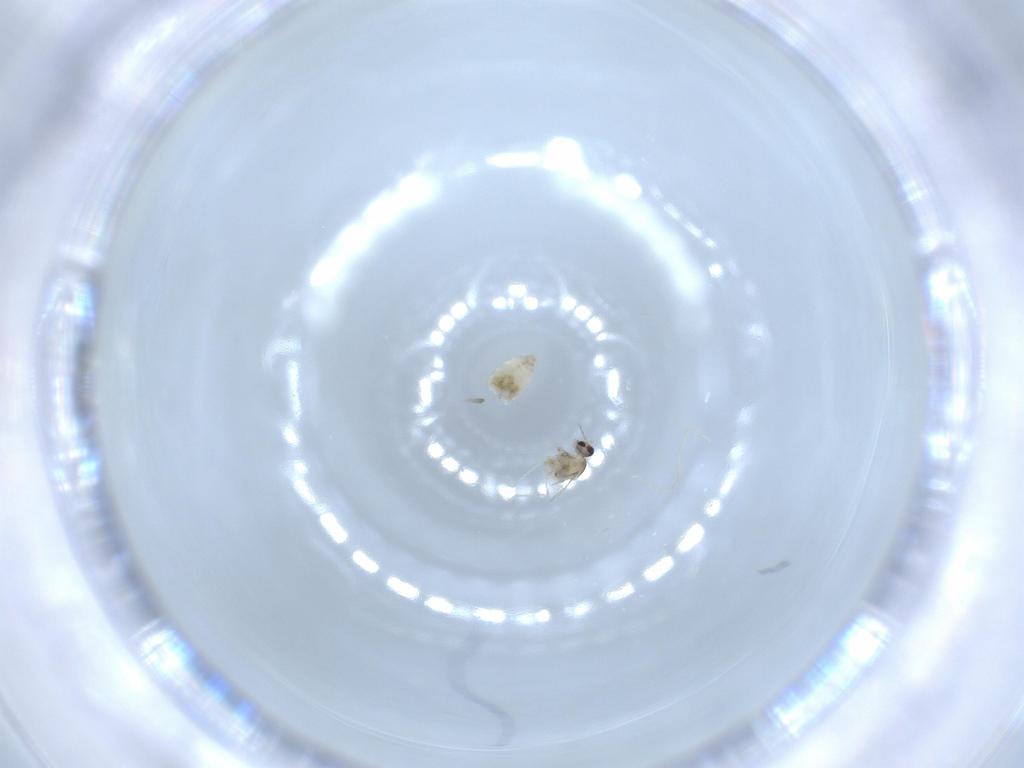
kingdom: Animalia
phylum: Arthropoda
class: Insecta
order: Diptera
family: Cecidomyiidae
